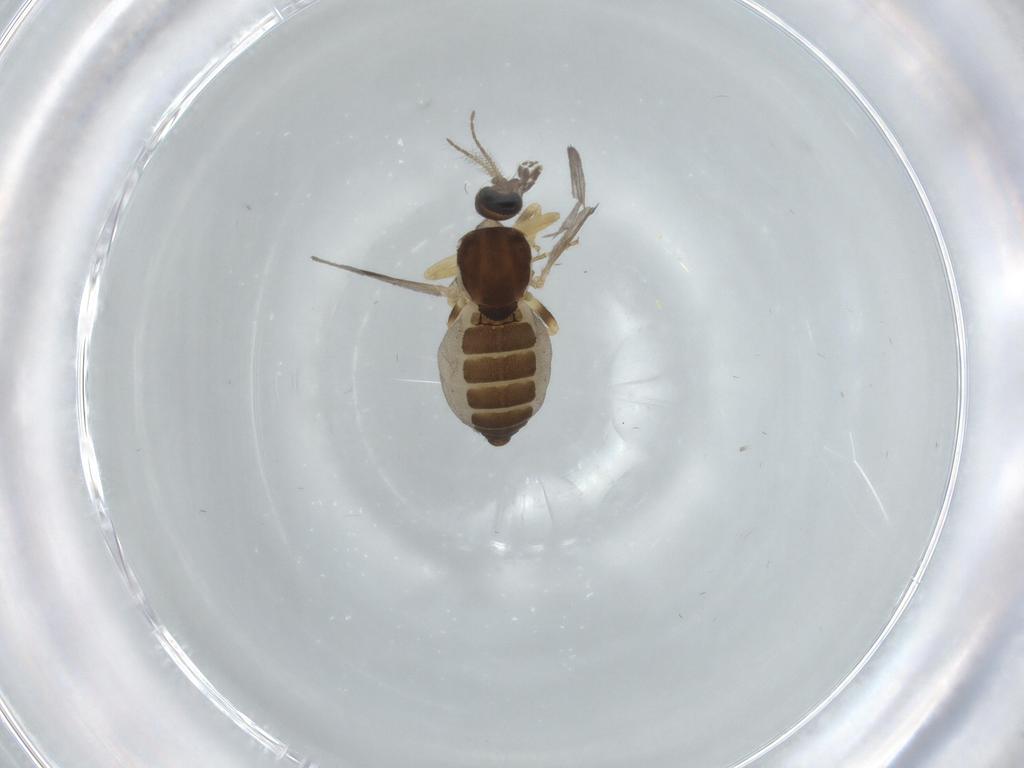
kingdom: Animalia
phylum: Arthropoda
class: Insecta
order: Diptera
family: Ceratopogonidae
